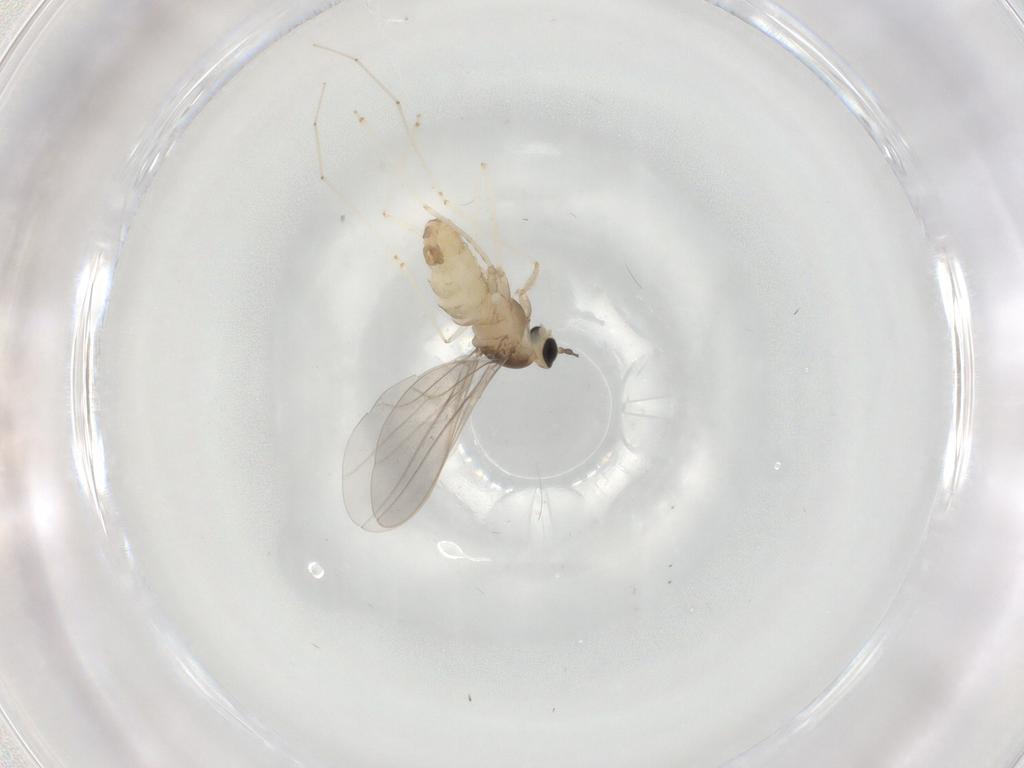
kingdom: Animalia
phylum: Arthropoda
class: Insecta
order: Diptera
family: Cecidomyiidae
